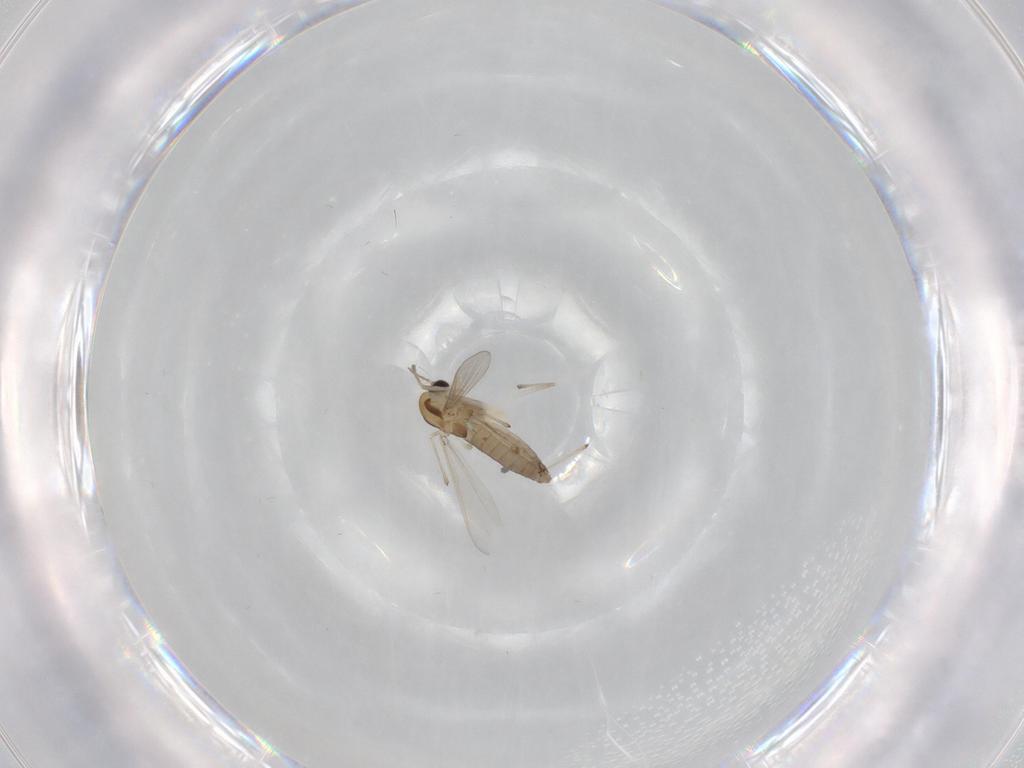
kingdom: Animalia
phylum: Arthropoda
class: Insecta
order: Diptera
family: Chironomidae
